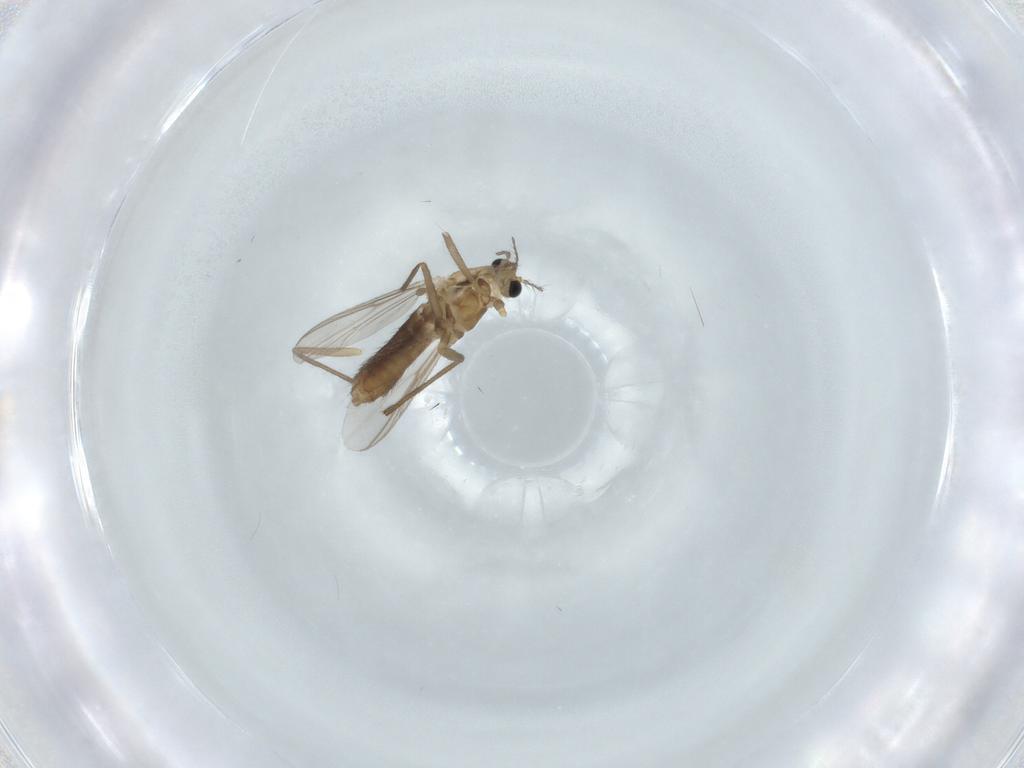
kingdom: Animalia
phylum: Arthropoda
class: Insecta
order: Diptera
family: Chironomidae
